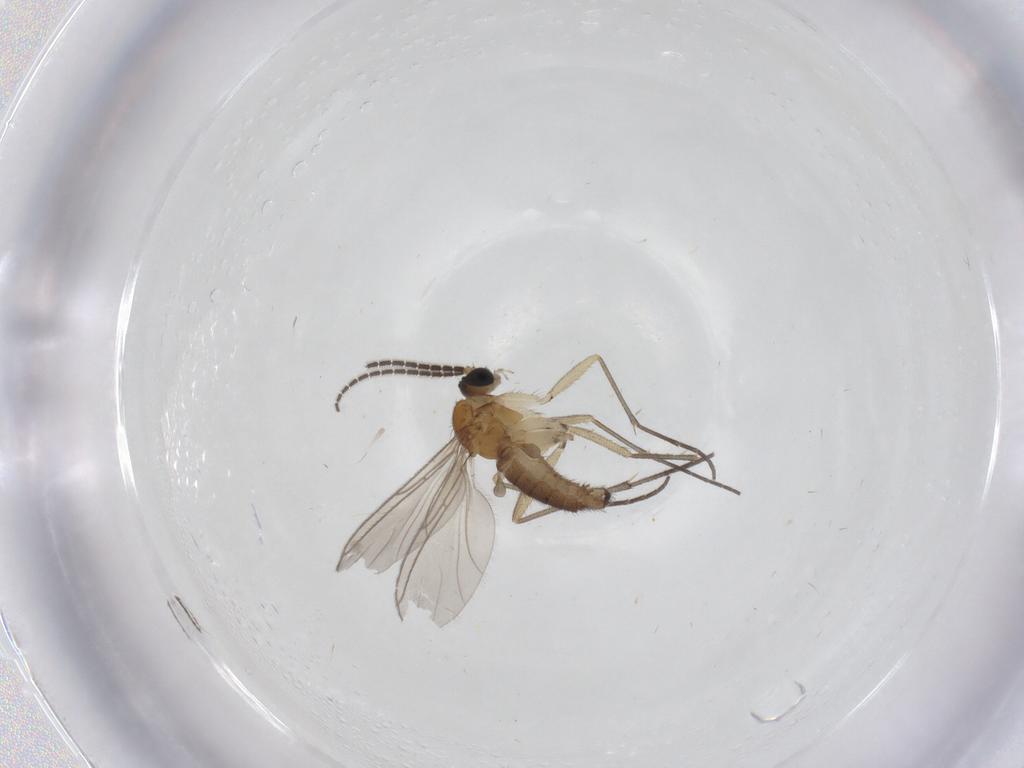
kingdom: Animalia
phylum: Arthropoda
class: Insecta
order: Diptera
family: Sciaridae
